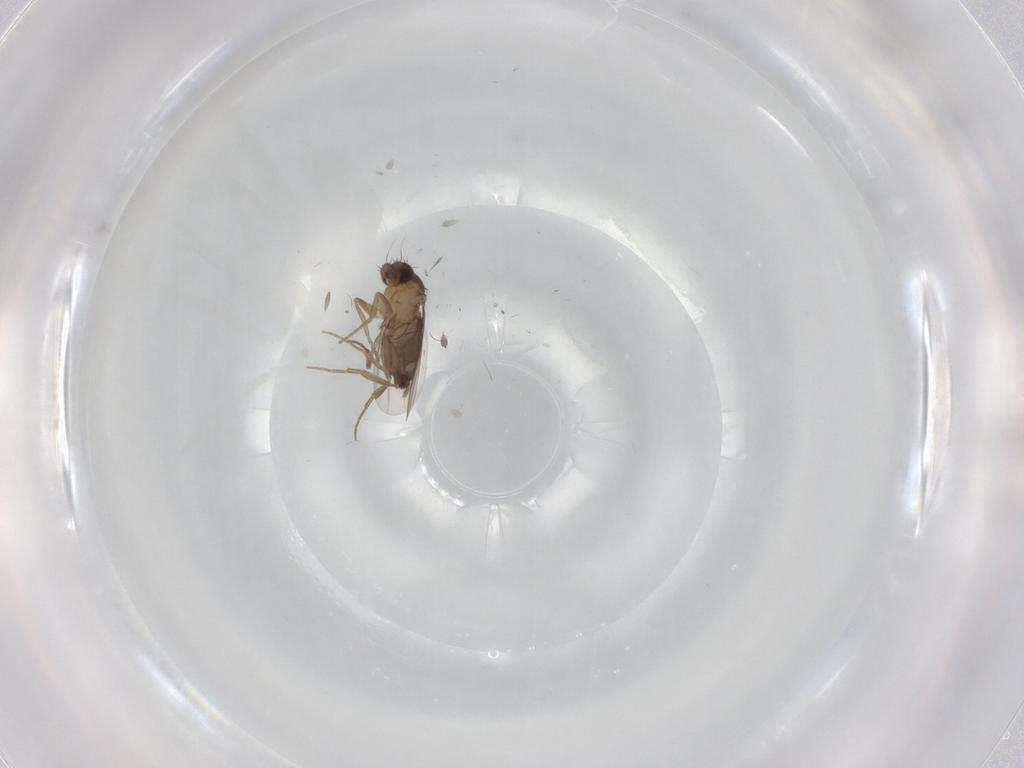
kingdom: Animalia
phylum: Arthropoda
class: Insecta
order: Diptera
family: Phoridae
